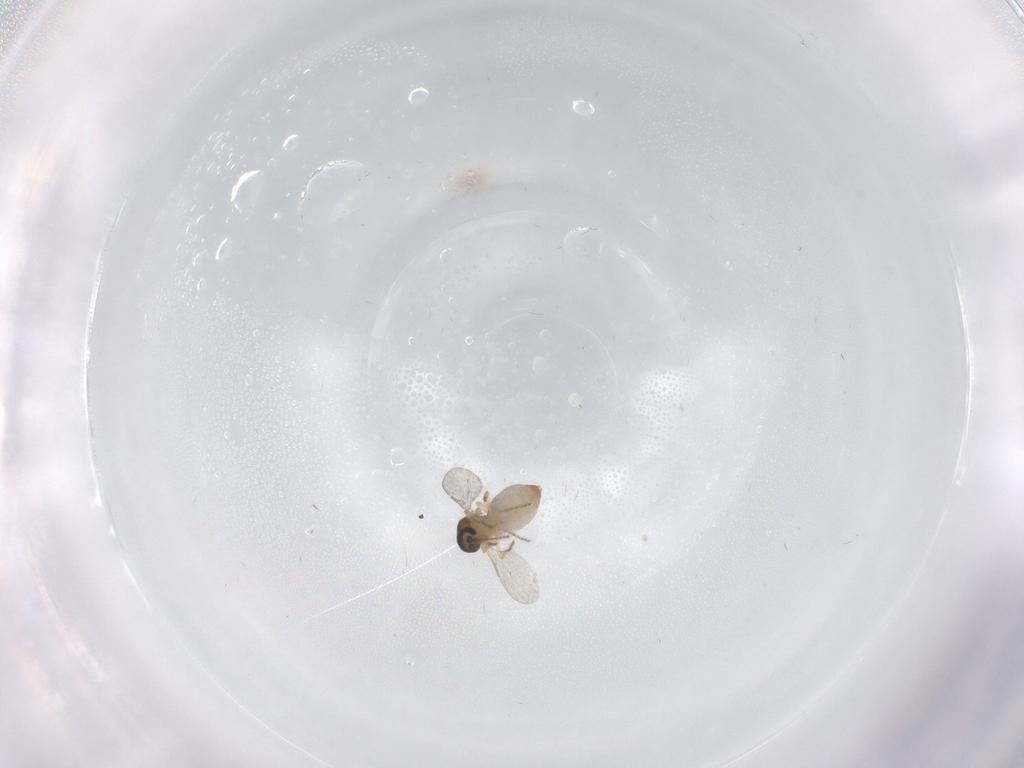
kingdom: Animalia
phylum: Arthropoda
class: Insecta
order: Diptera
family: Ceratopogonidae
